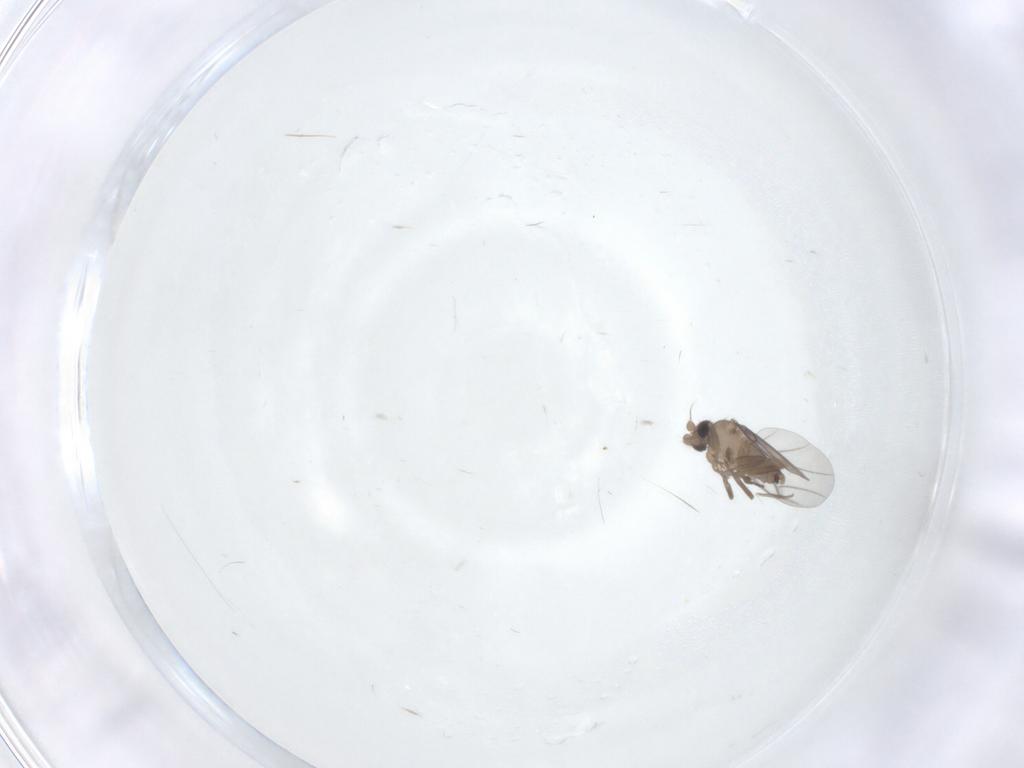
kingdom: Animalia
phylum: Arthropoda
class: Insecta
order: Diptera
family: Phoridae
